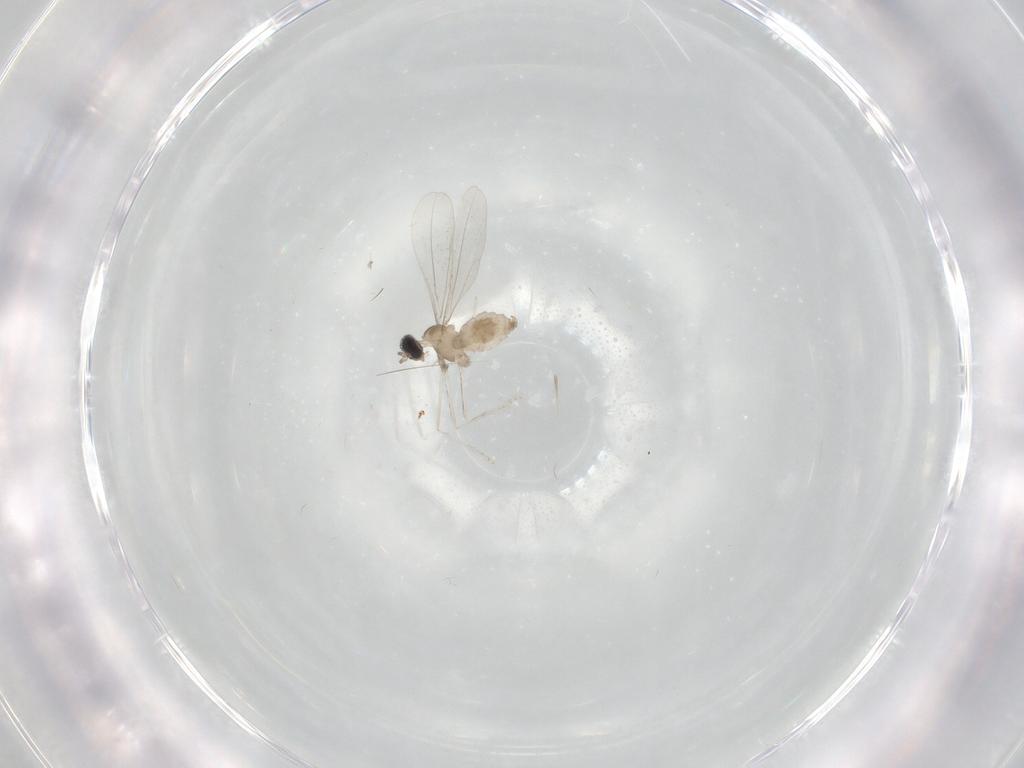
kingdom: Animalia
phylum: Arthropoda
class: Insecta
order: Diptera
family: Cecidomyiidae
